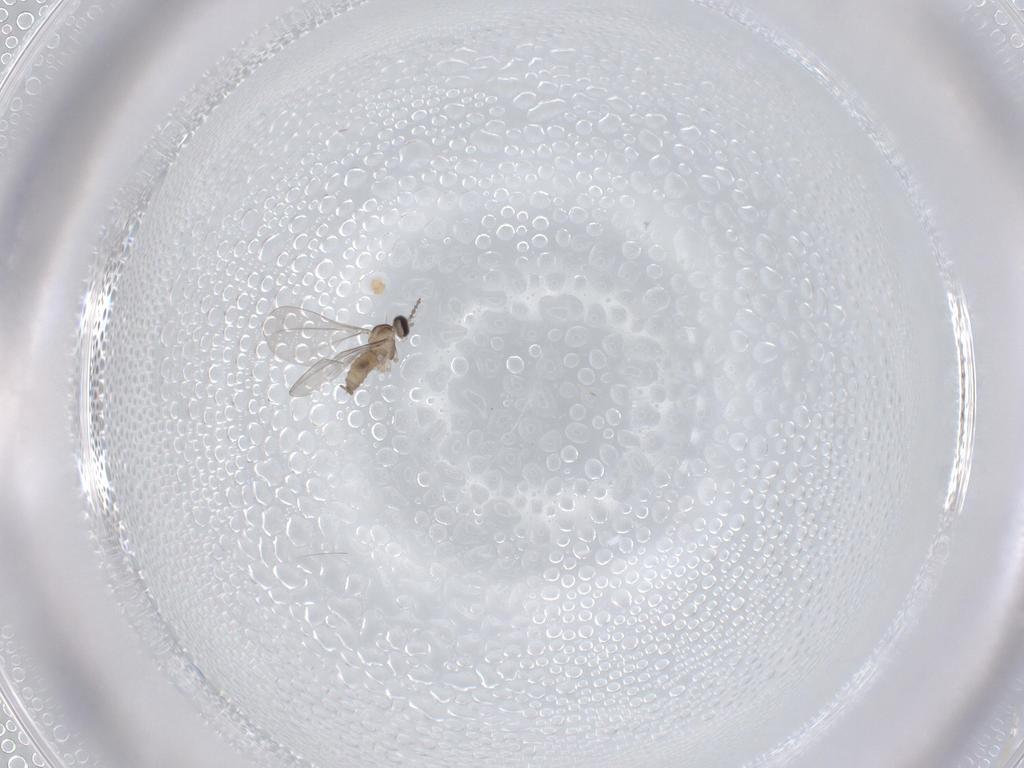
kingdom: Animalia
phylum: Arthropoda
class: Insecta
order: Diptera
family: Cecidomyiidae
